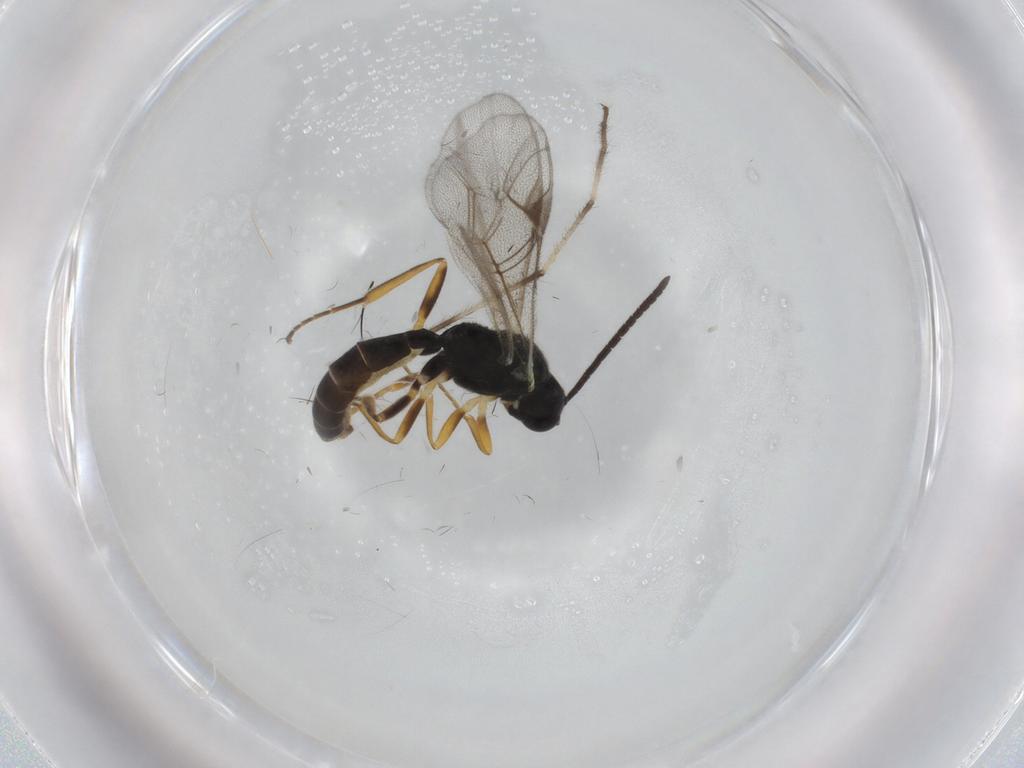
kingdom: Animalia
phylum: Arthropoda
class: Insecta
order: Hymenoptera
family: Ichneumonidae
